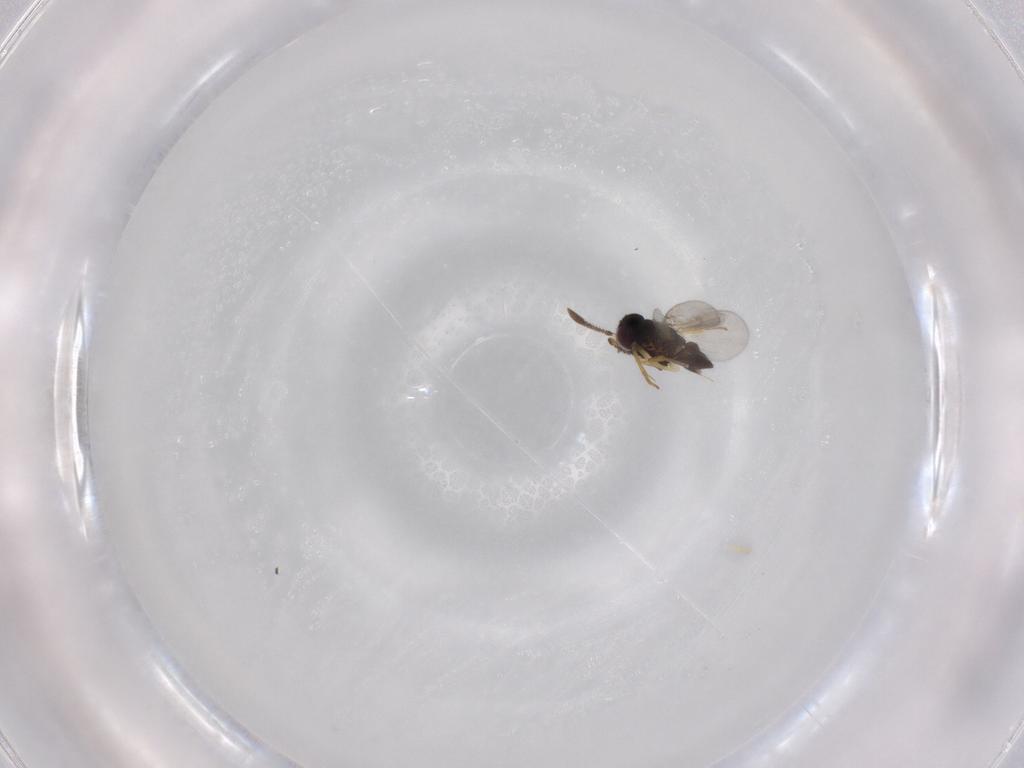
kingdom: Animalia
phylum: Arthropoda
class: Insecta
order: Hymenoptera
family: Encyrtidae
